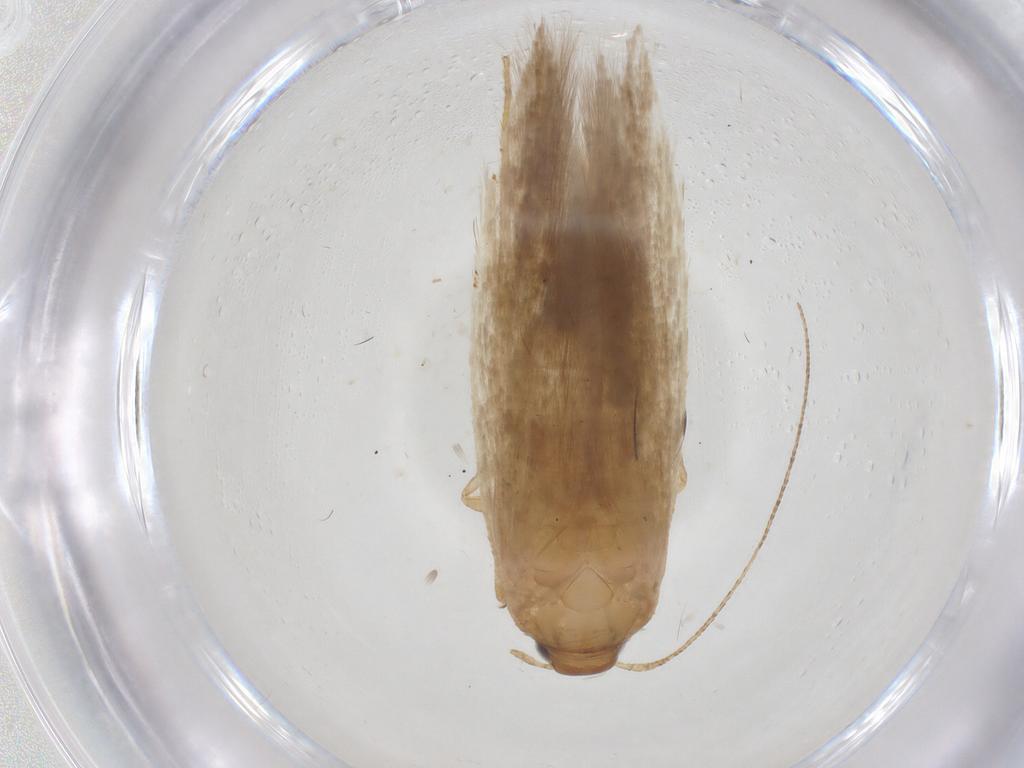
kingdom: Animalia
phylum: Arthropoda
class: Insecta
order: Lepidoptera
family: Gelechiidae
